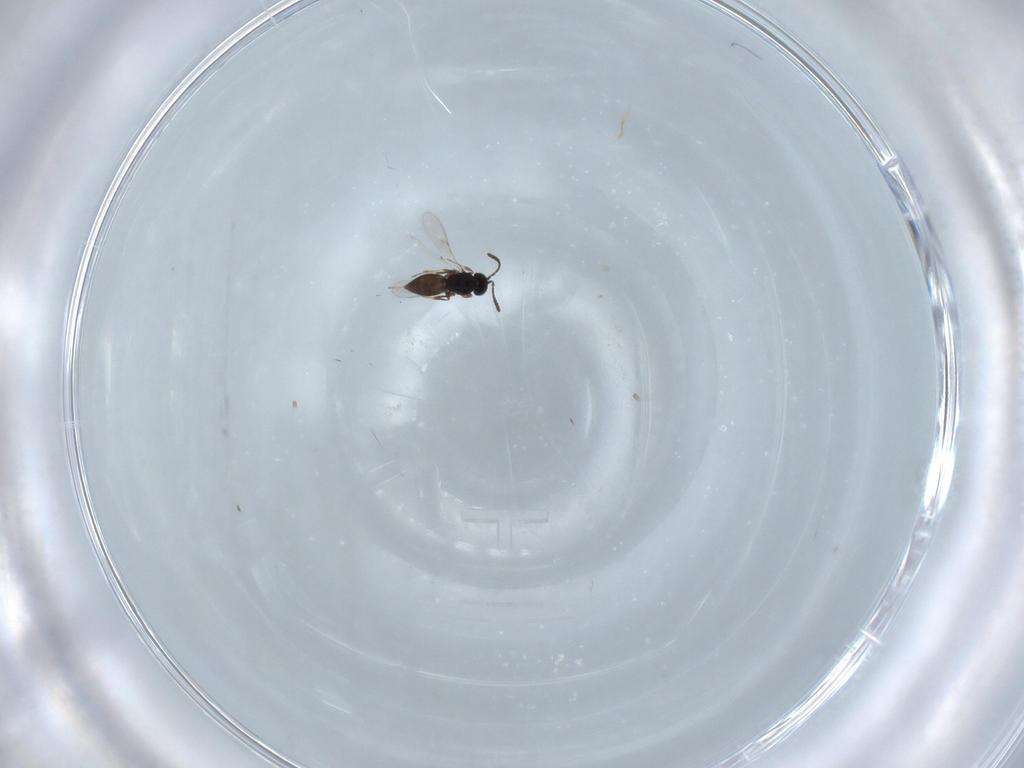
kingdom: Animalia
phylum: Arthropoda
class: Insecta
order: Hymenoptera
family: Scelionidae
